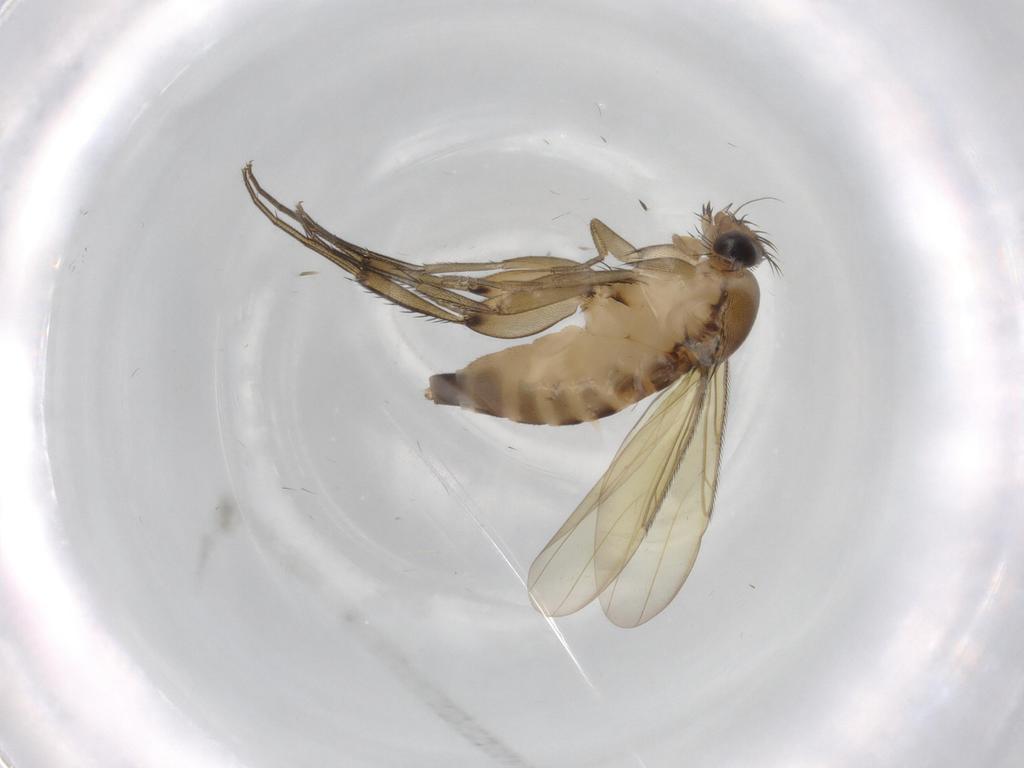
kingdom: Animalia
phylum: Arthropoda
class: Insecta
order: Diptera
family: Phoridae
